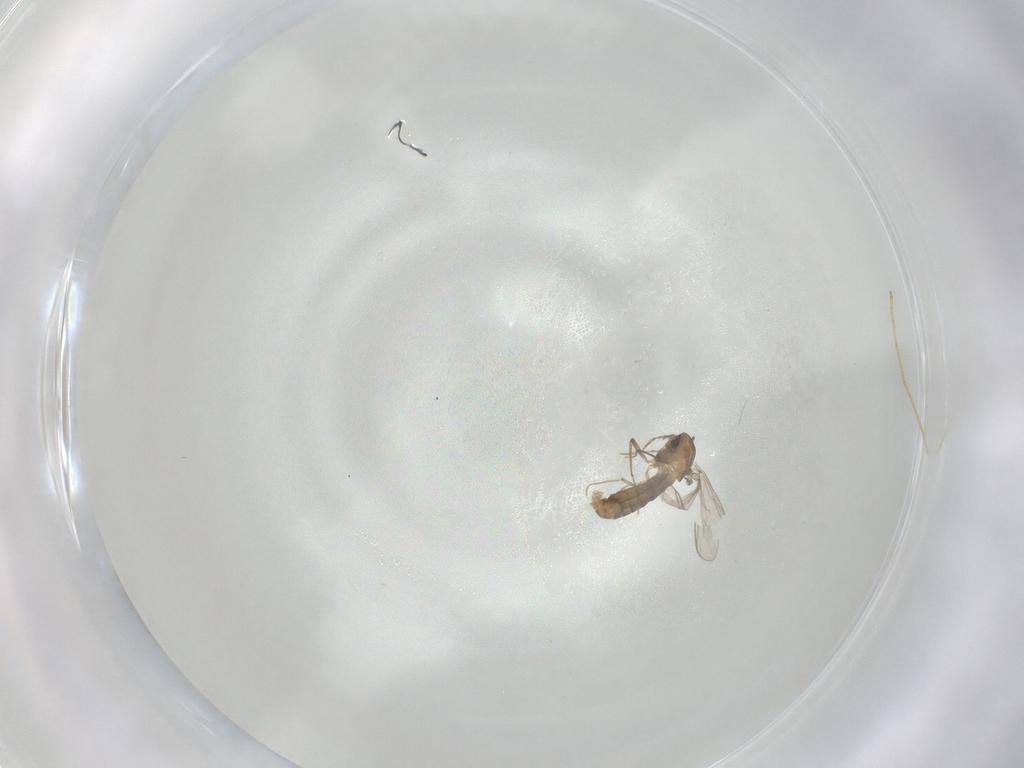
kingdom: Animalia
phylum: Arthropoda
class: Insecta
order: Diptera
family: Chironomidae
